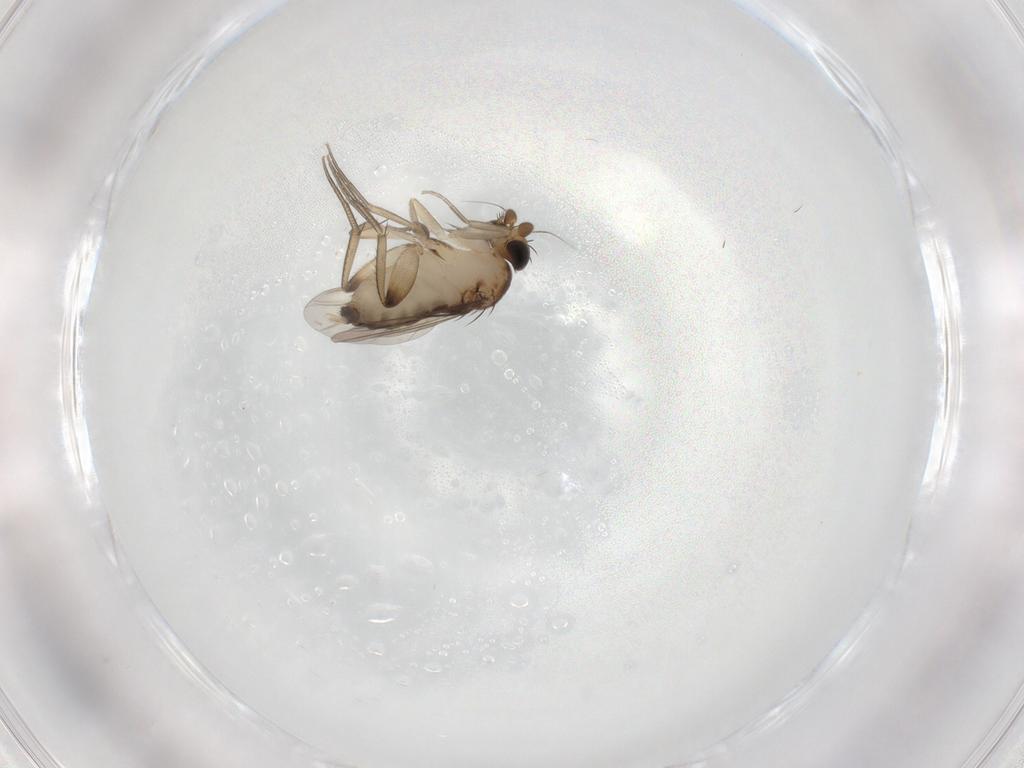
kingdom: Animalia
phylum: Arthropoda
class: Insecta
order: Diptera
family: Phoridae
